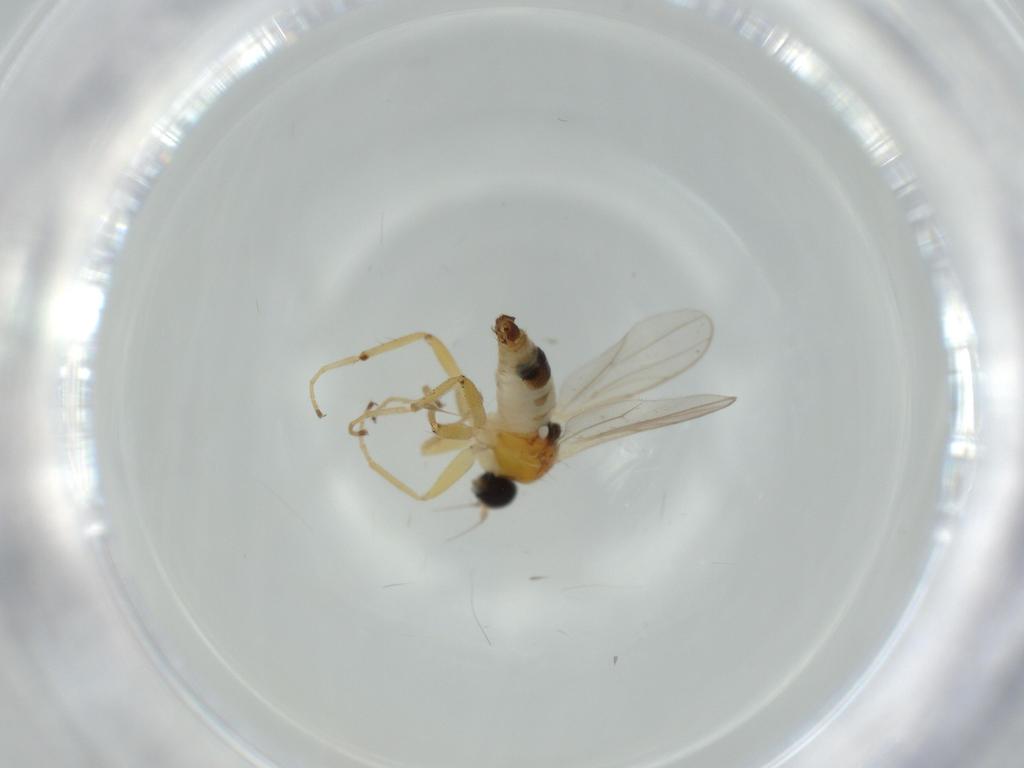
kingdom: Animalia
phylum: Arthropoda
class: Insecta
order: Diptera
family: Hybotidae
